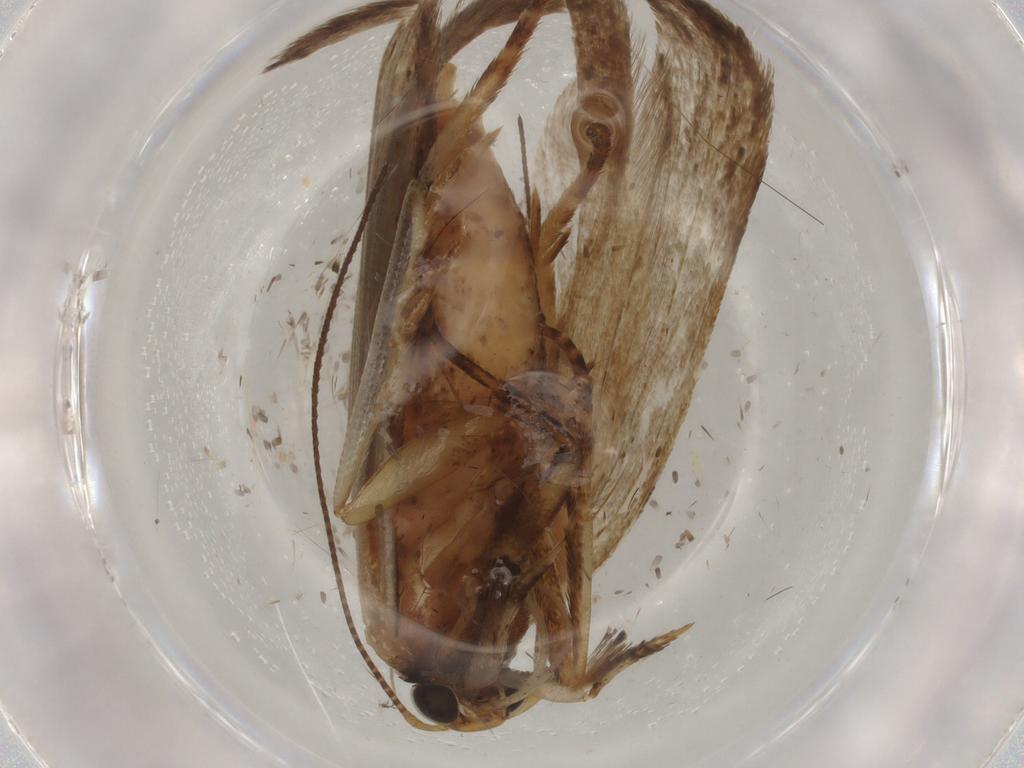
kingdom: Animalia
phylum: Arthropoda
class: Insecta
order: Lepidoptera
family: Crambidae
